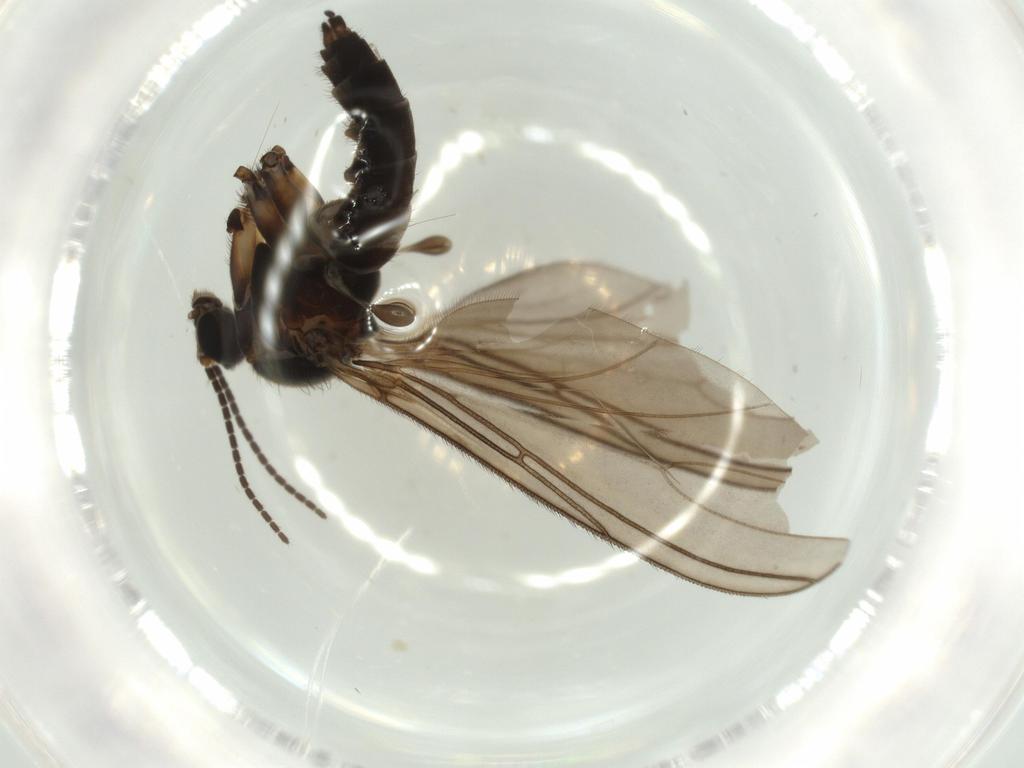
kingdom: Animalia
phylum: Arthropoda
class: Insecta
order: Diptera
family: Sciaridae
